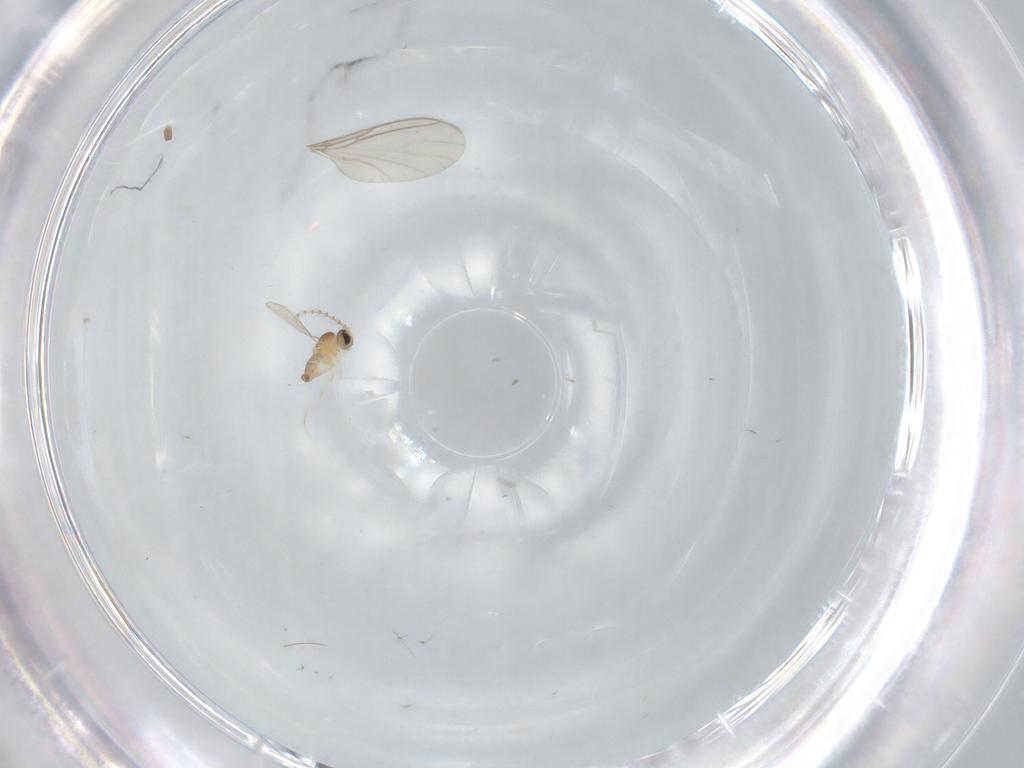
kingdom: Animalia
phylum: Arthropoda
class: Insecta
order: Diptera
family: Cecidomyiidae
